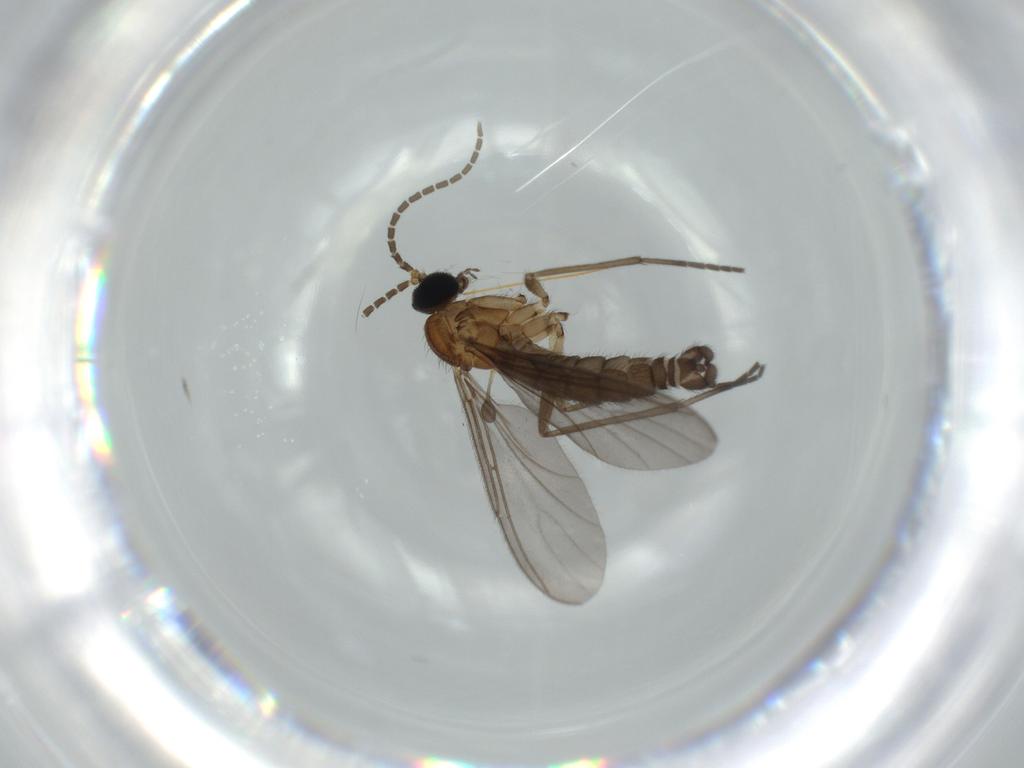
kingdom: Animalia
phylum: Arthropoda
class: Insecta
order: Diptera
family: Sciaridae
